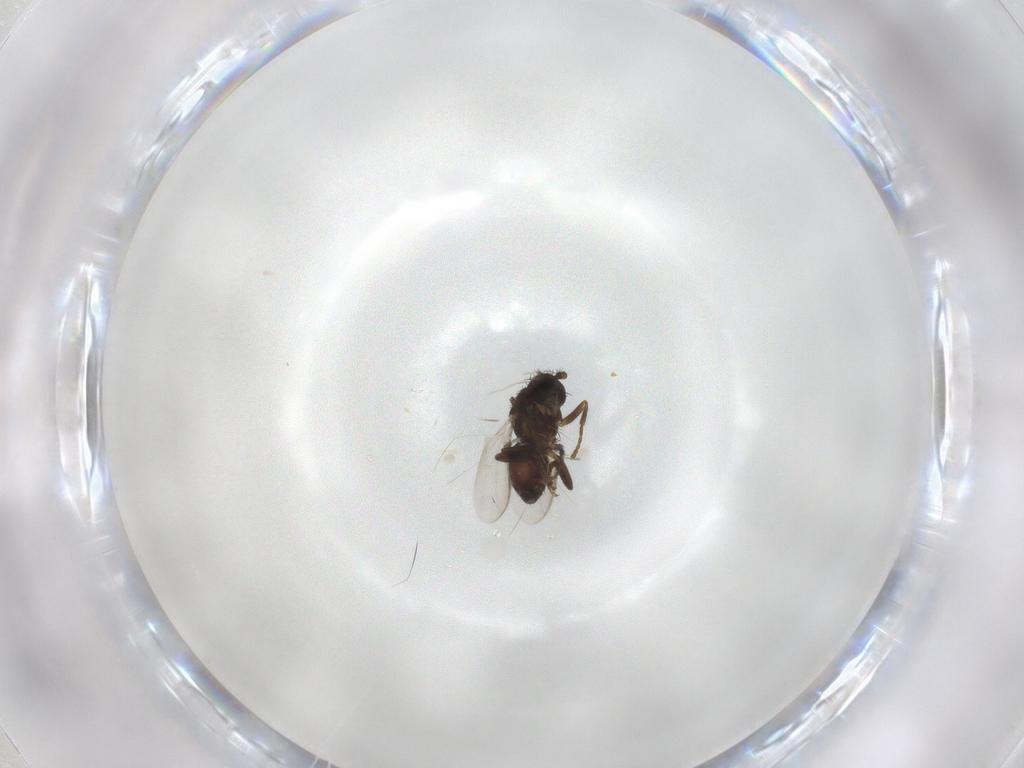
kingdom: Animalia
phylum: Arthropoda
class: Insecta
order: Diptera
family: Sphaeroceridae
